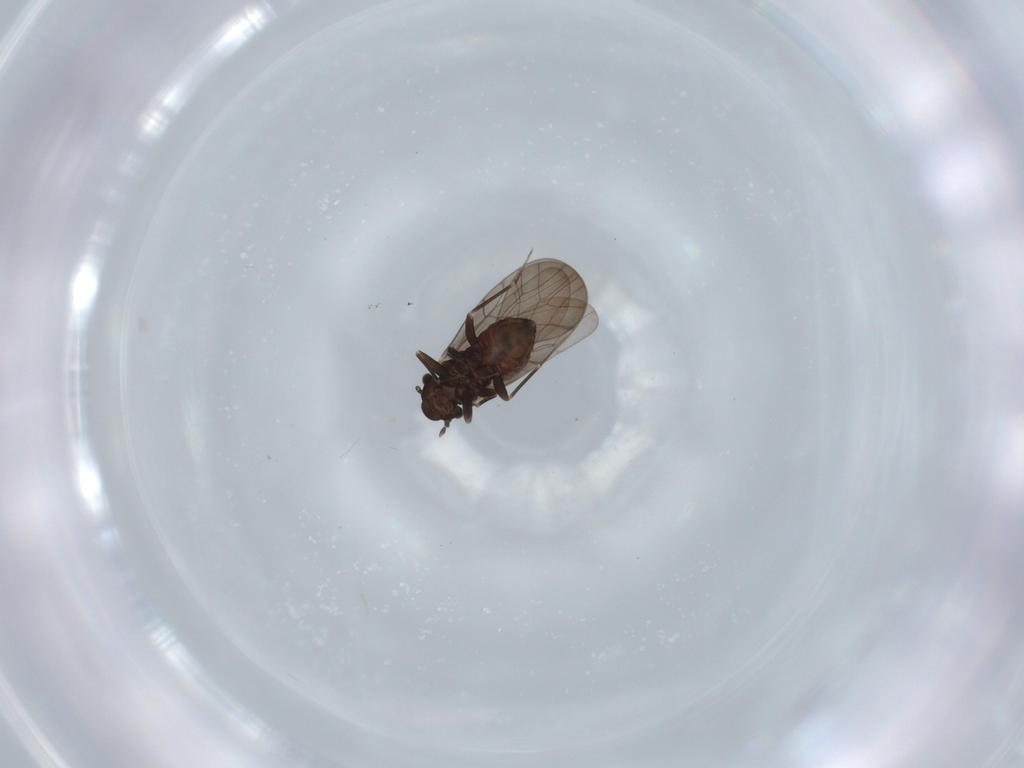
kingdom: Animalia
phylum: Arthropoda
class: Insecta
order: Psocodea
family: Lepidopsocidae
